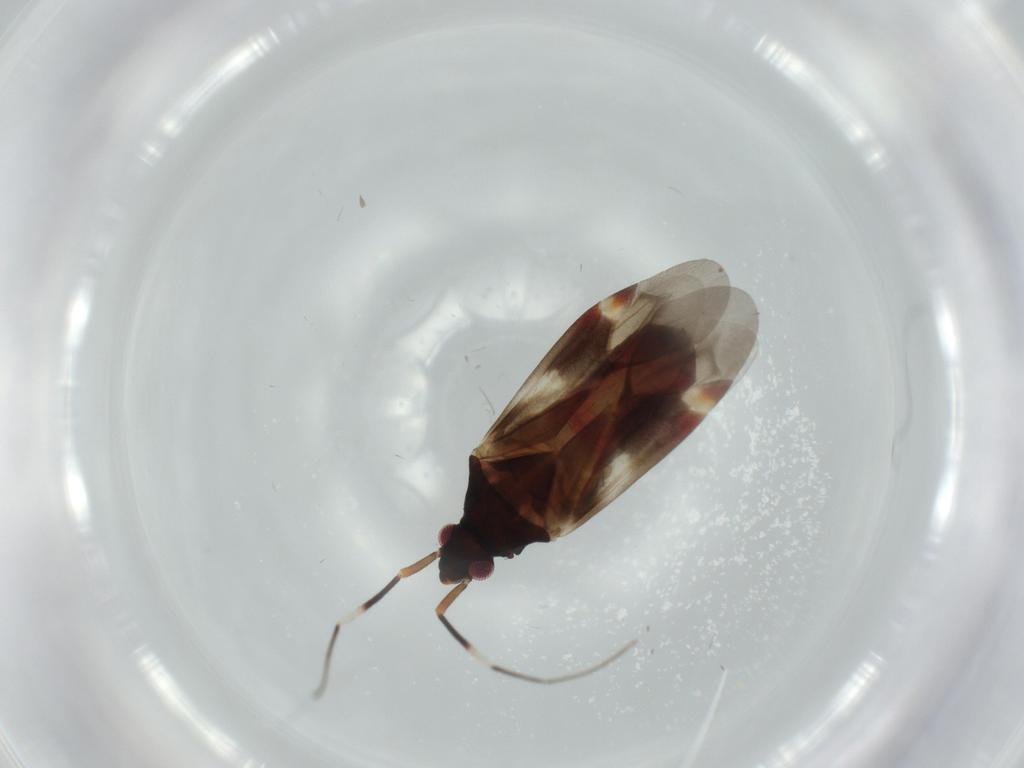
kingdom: Animalia
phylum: Arthropoda
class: Insecta
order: Hemiptera
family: Miridae
